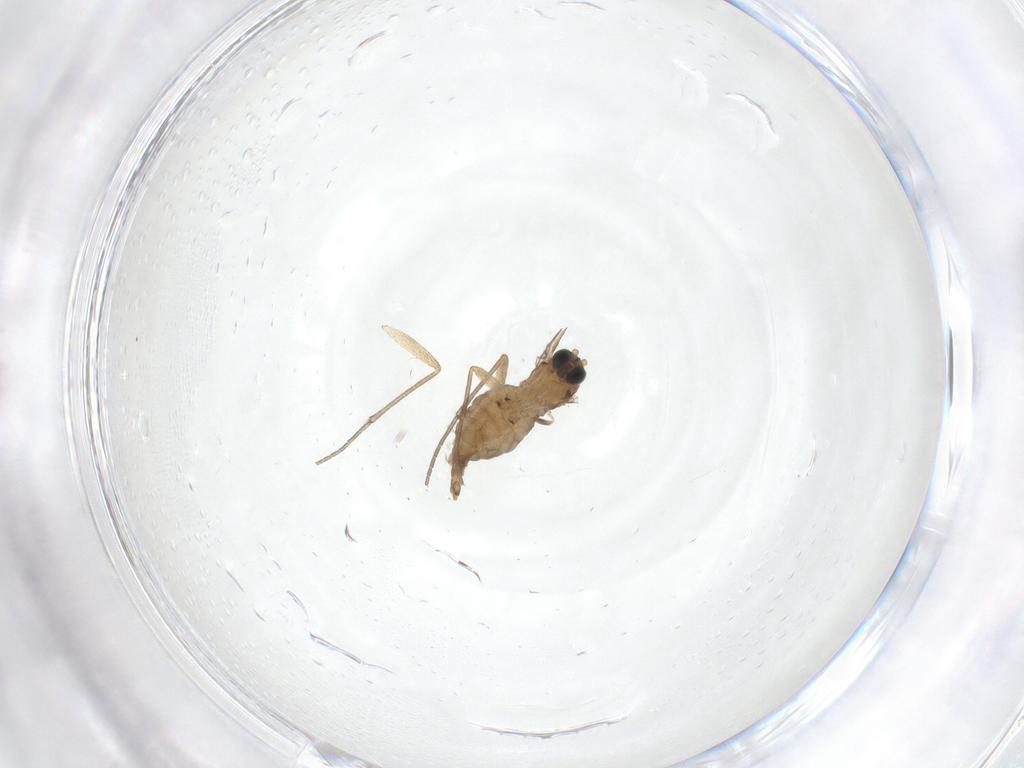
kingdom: Animalia
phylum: Arthropoda
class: Insecta
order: Diptera
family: Sciaridae
